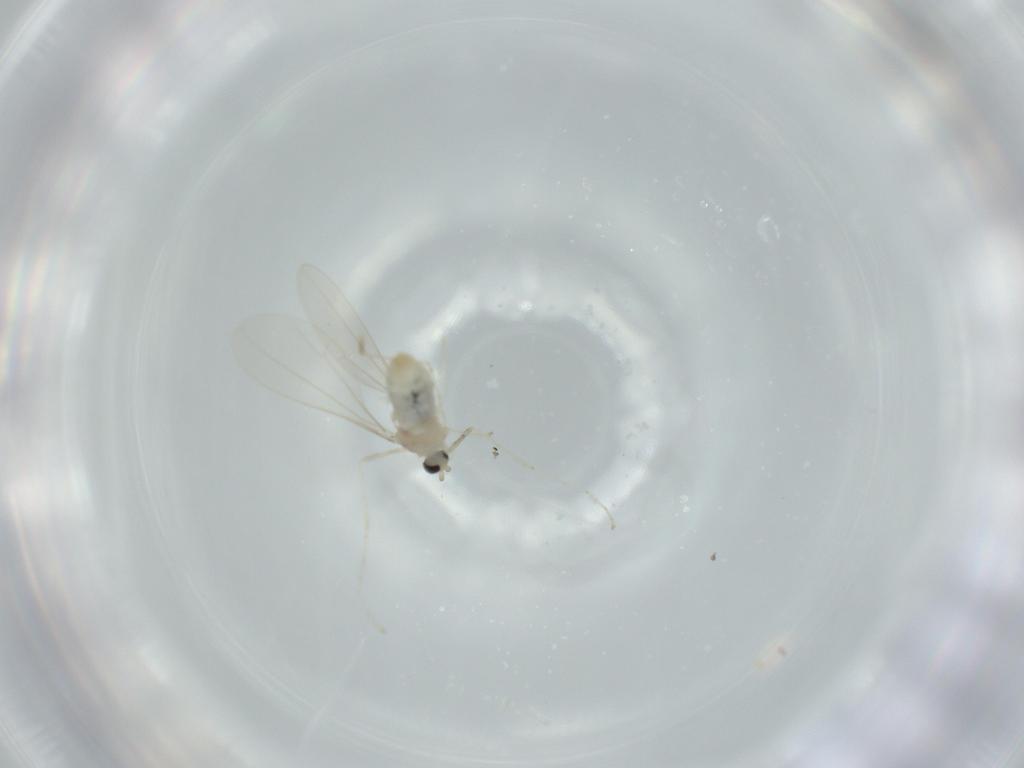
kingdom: Animalia
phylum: Arthropoda
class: Insecta
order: Diptera
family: Cecidomyiidae
